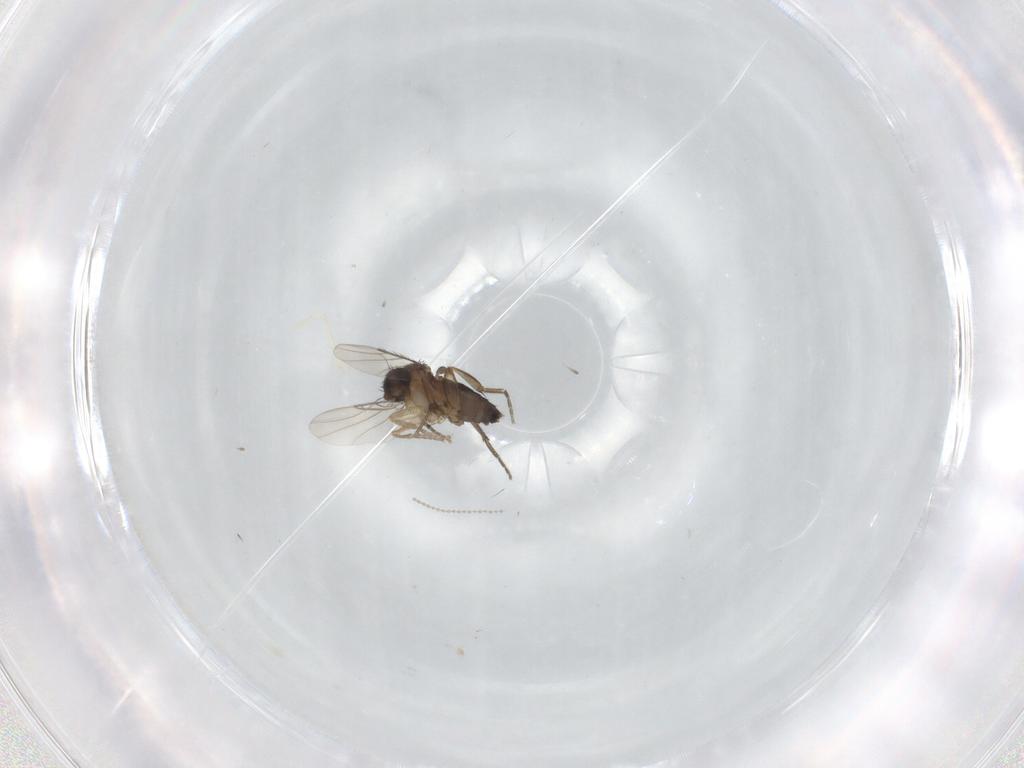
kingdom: Animalia
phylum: Arthropoda
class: Insecta
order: Diptera
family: Phoridae
